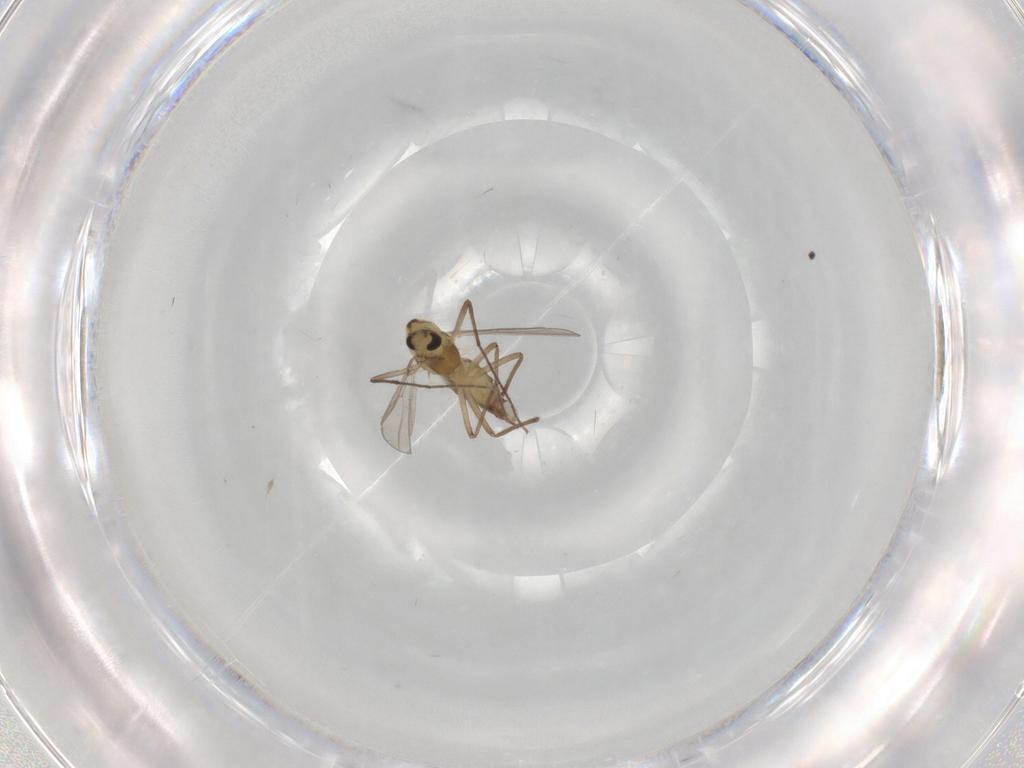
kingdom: Animalia
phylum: Arthropoda
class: Insecta
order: Diptera
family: Chironomidae
